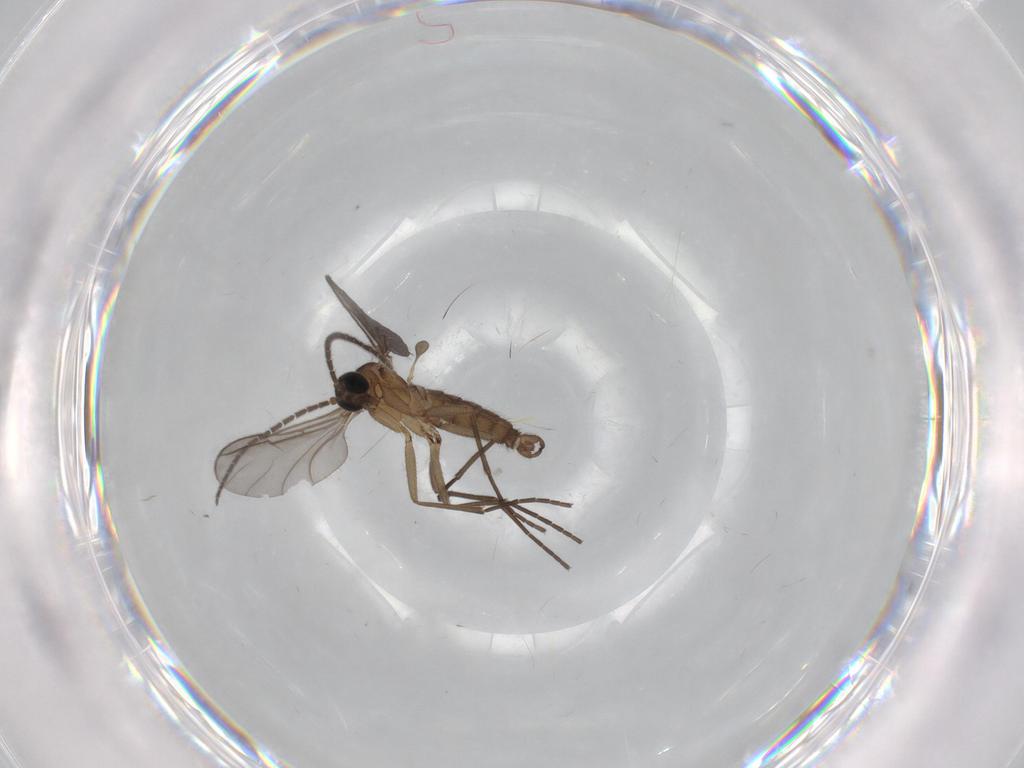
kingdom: Animalia
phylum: Arthropoda
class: Insecta
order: Diptera
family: Sciaridae
